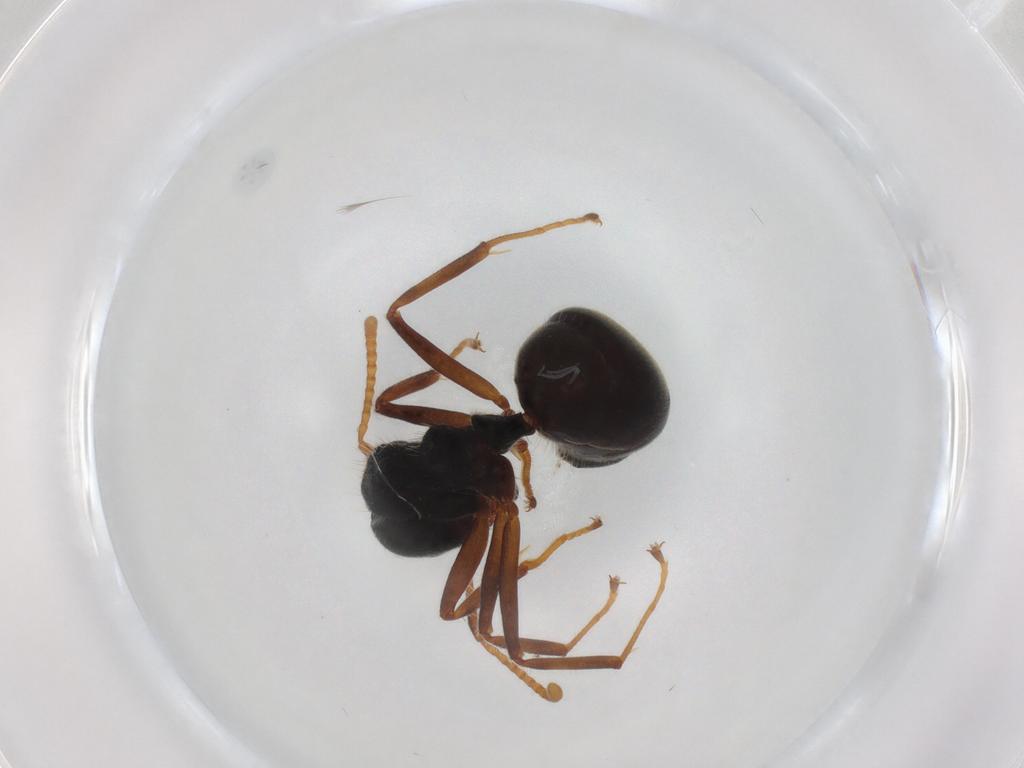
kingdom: Animalia
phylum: Arthropoda
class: Insecta
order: Hymenoptera
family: Formicidae
